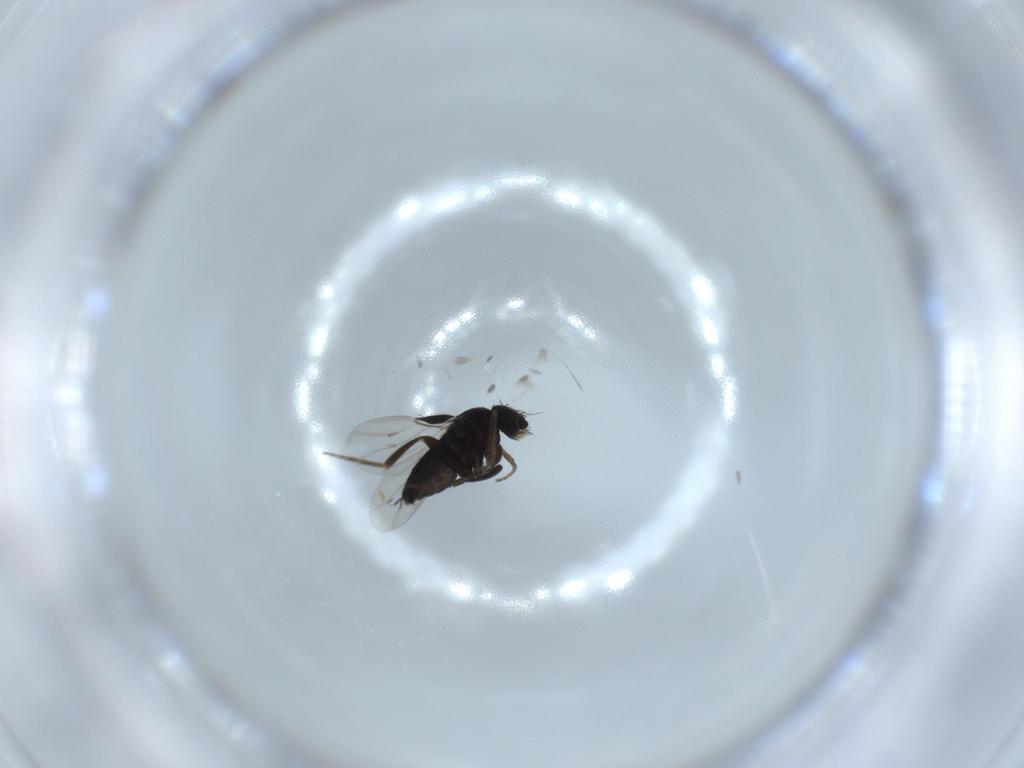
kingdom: Animalia
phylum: Arthropoda
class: Insecta
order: Diptera
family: Phoridae
